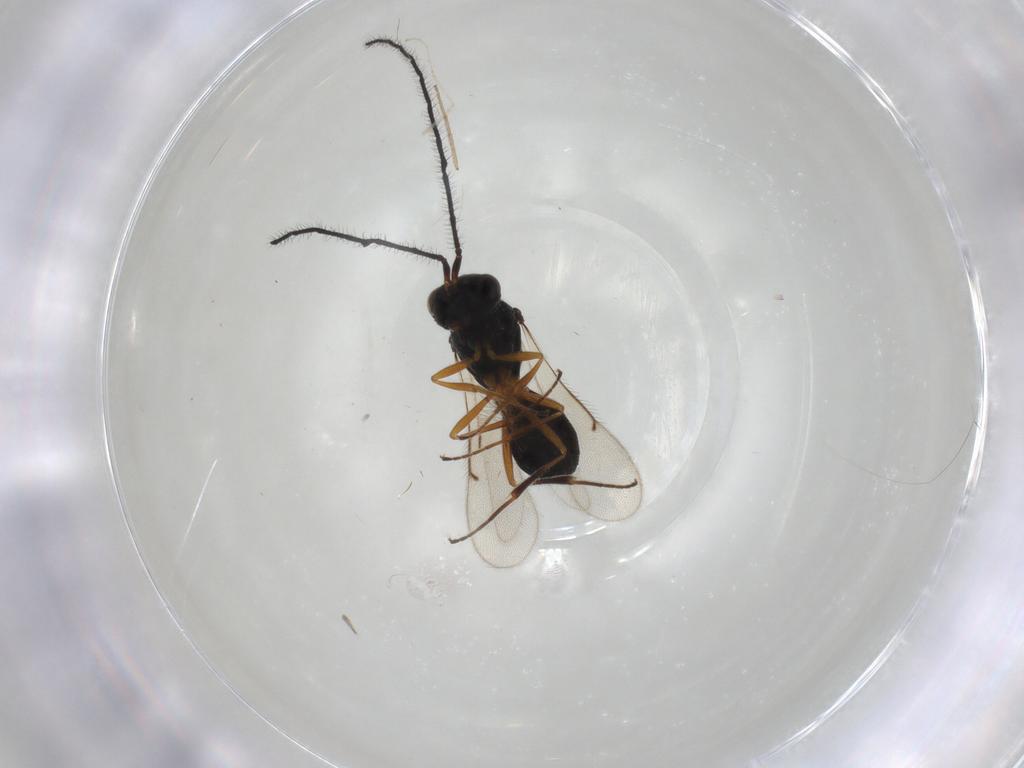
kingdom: Animalia
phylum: Arthropoda
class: Insecta
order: Hymenoptera
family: Scelionidae
